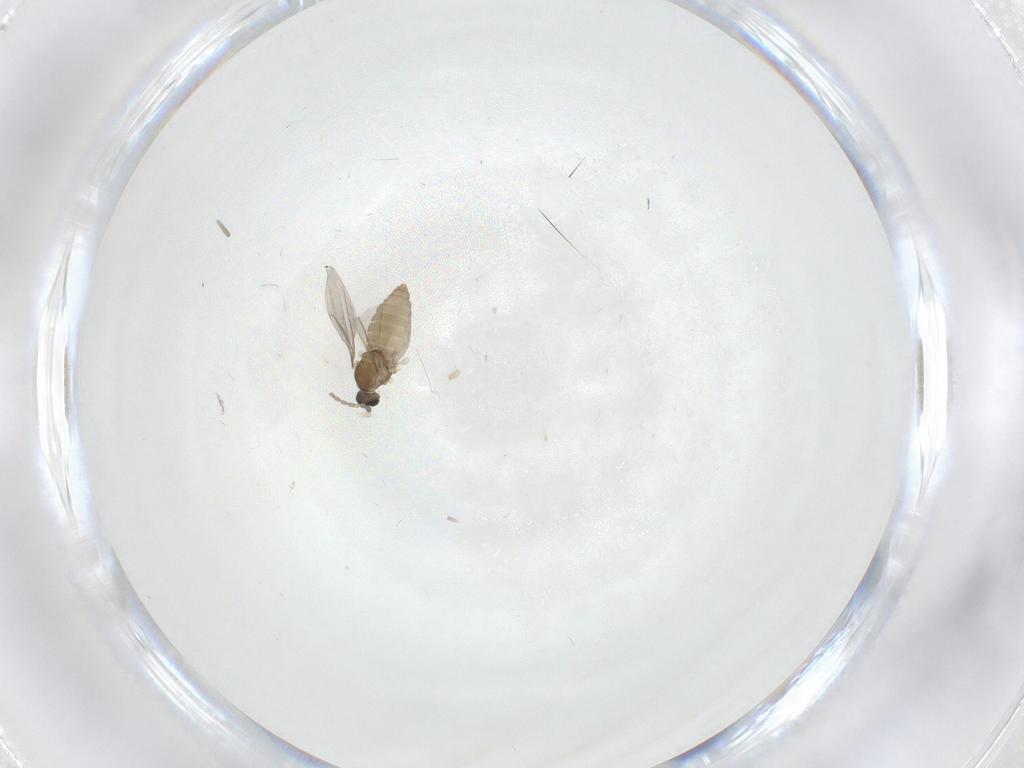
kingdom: Animalia
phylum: Arthropoda
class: Insecta
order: Diptera
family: Cecidomyiidae
